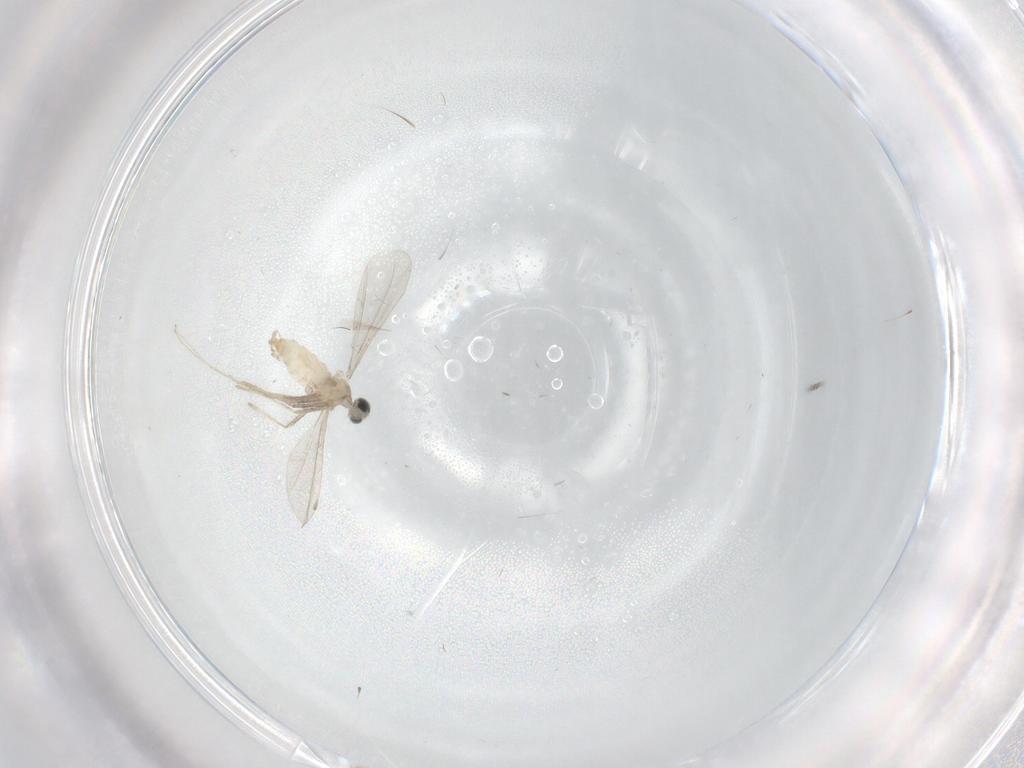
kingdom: Animalia
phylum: Arthropoda
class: Insecta
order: Diptera
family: Cecidomyiidae
